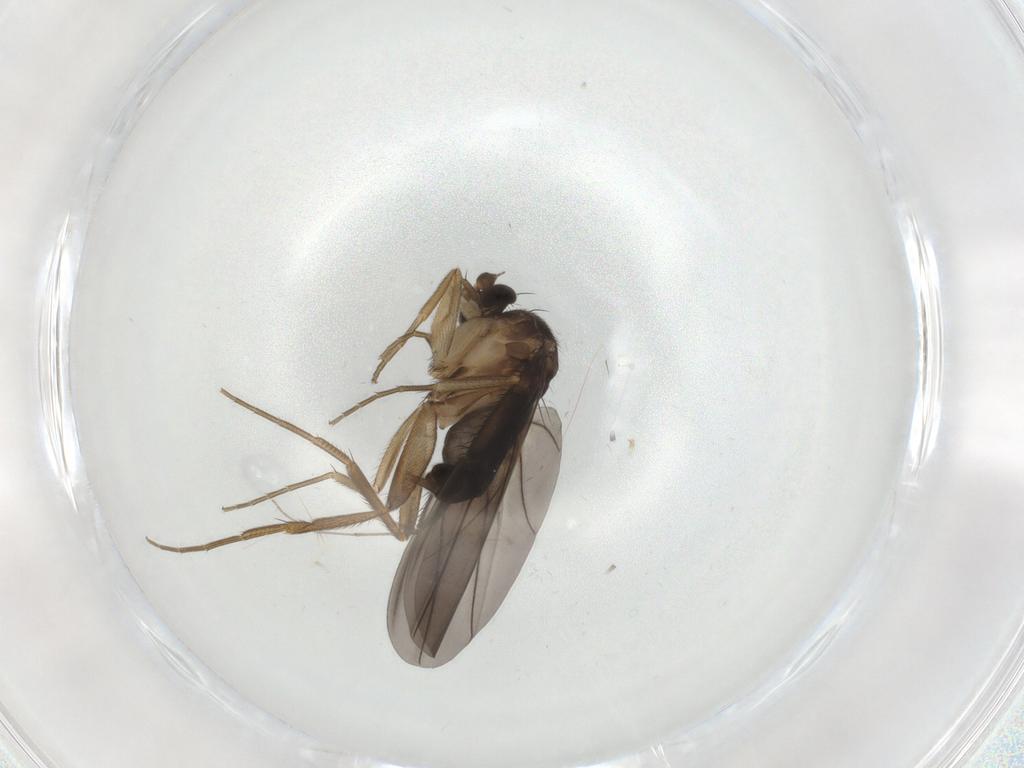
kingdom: Animalia
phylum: Arthropoda
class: Insecta
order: Diptera
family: Phoridae
